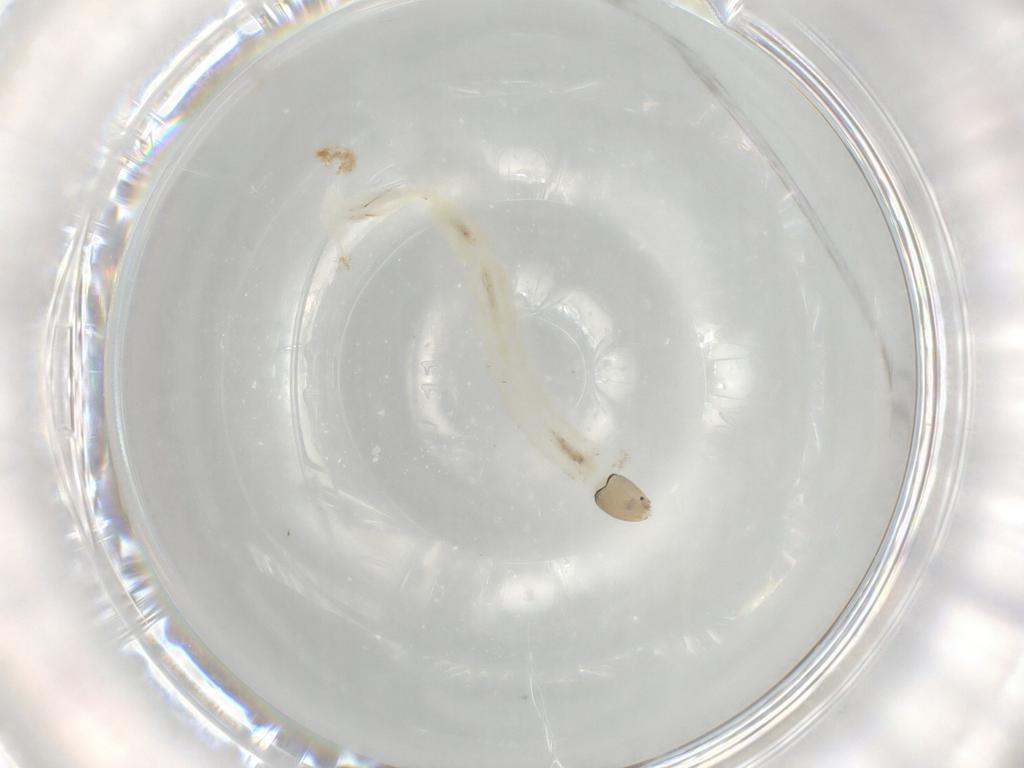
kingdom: Animalia
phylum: Arthropoda
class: Insecta
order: Diptera
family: Chironomidae
